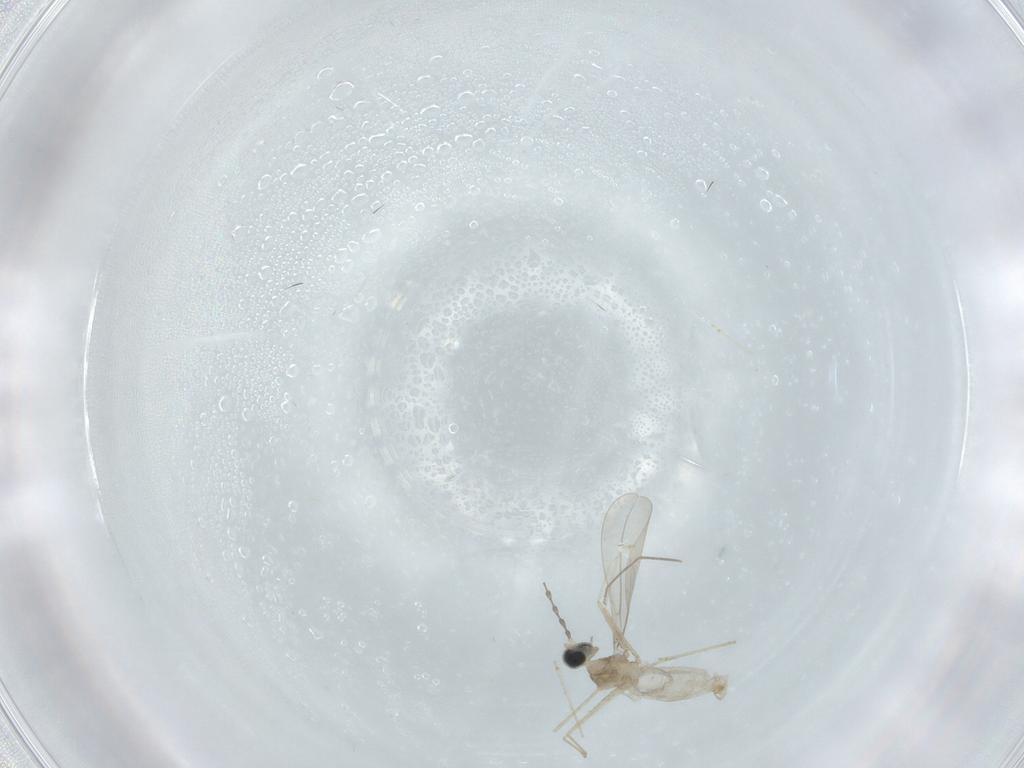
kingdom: Animalia
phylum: Arthropoda
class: Insecta
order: Diptera
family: Cecidomyiidae
